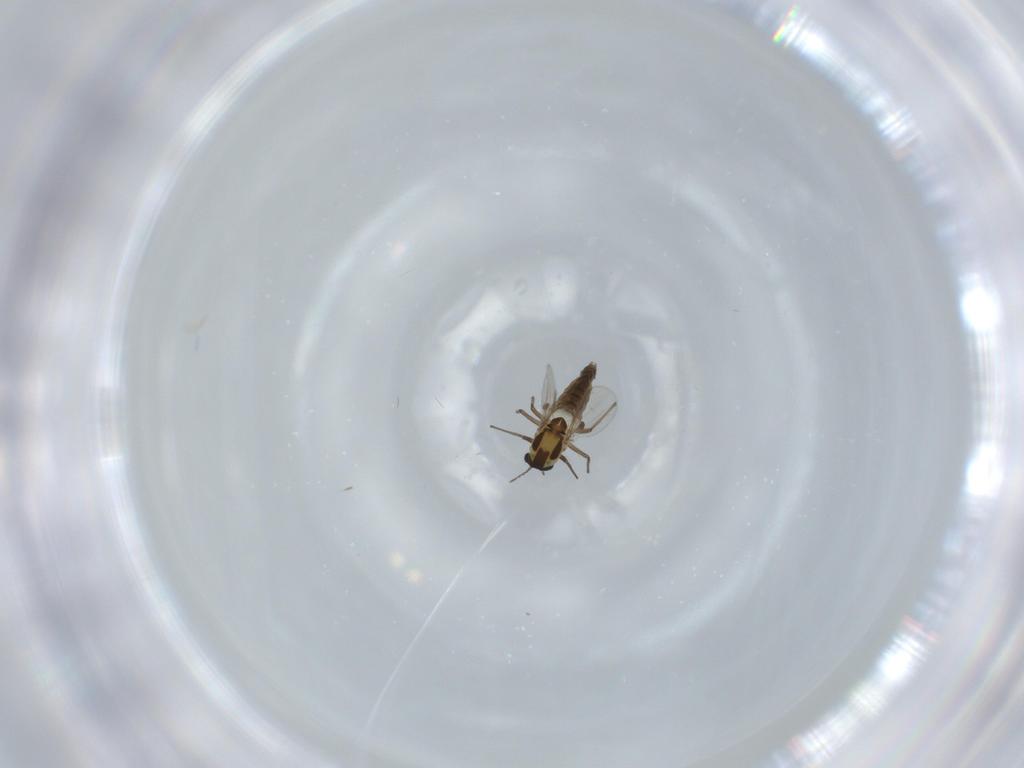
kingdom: Animalia
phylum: Arthropoda
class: Insecta
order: Diptera
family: Chironomidae
